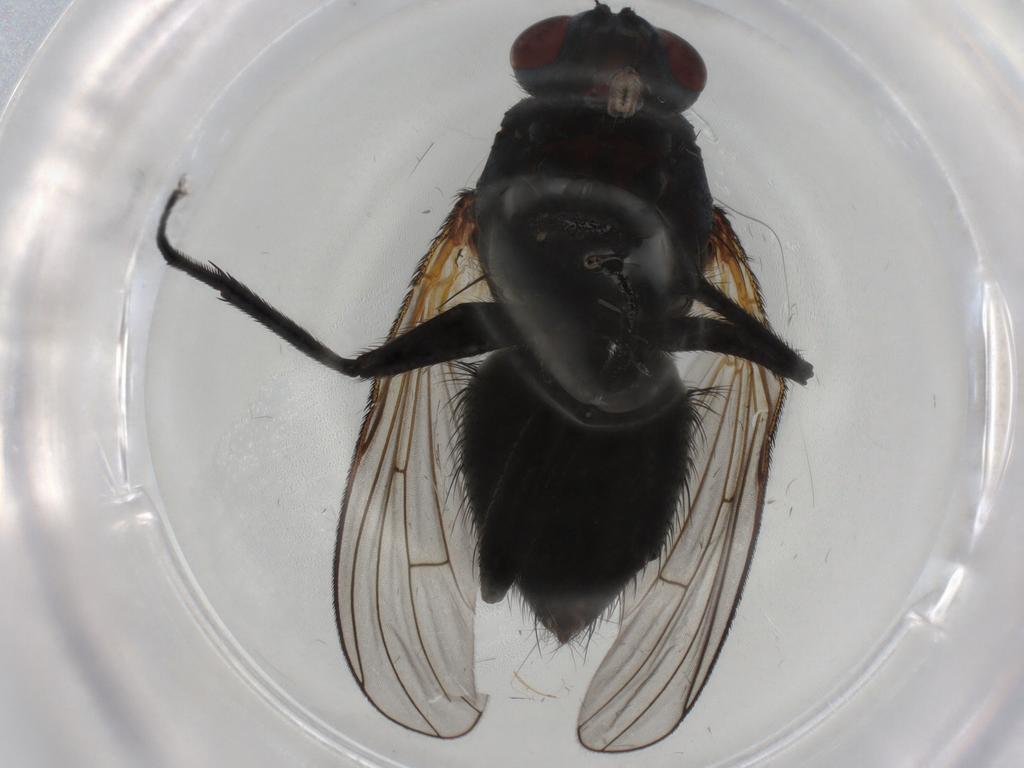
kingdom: Animalia
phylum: Arthropoda
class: Insecta
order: Diptera
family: Muscidae
